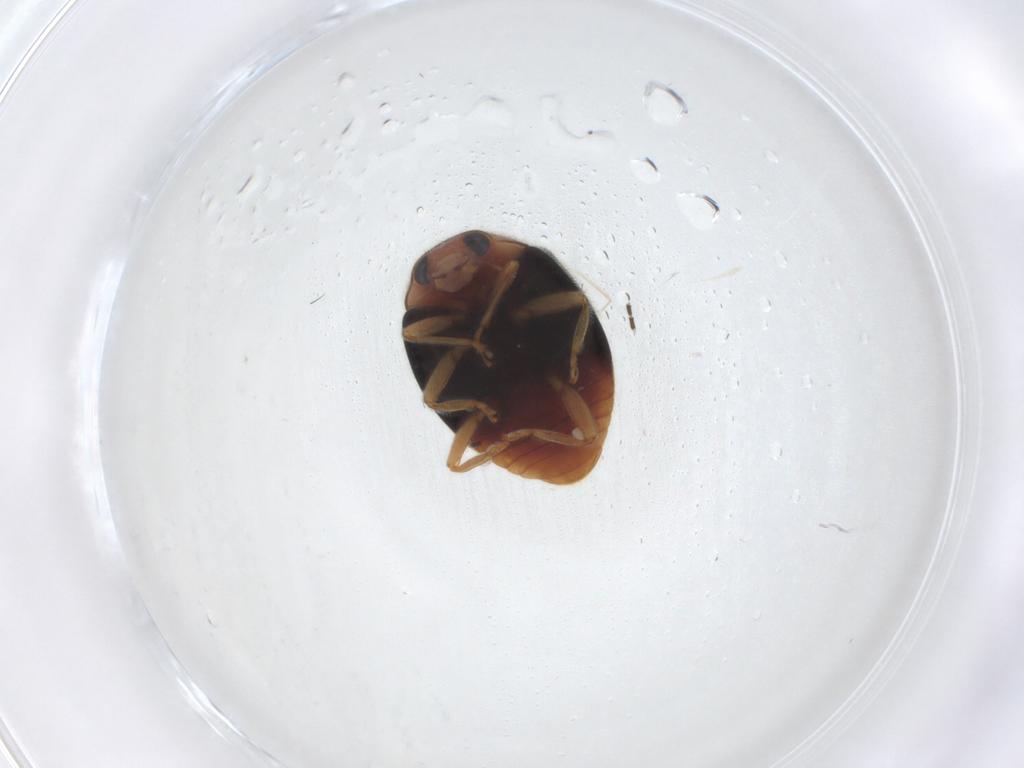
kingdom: Animalia
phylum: Arthropoda
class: Insecta
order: Coleoptera
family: Coccinellidae
